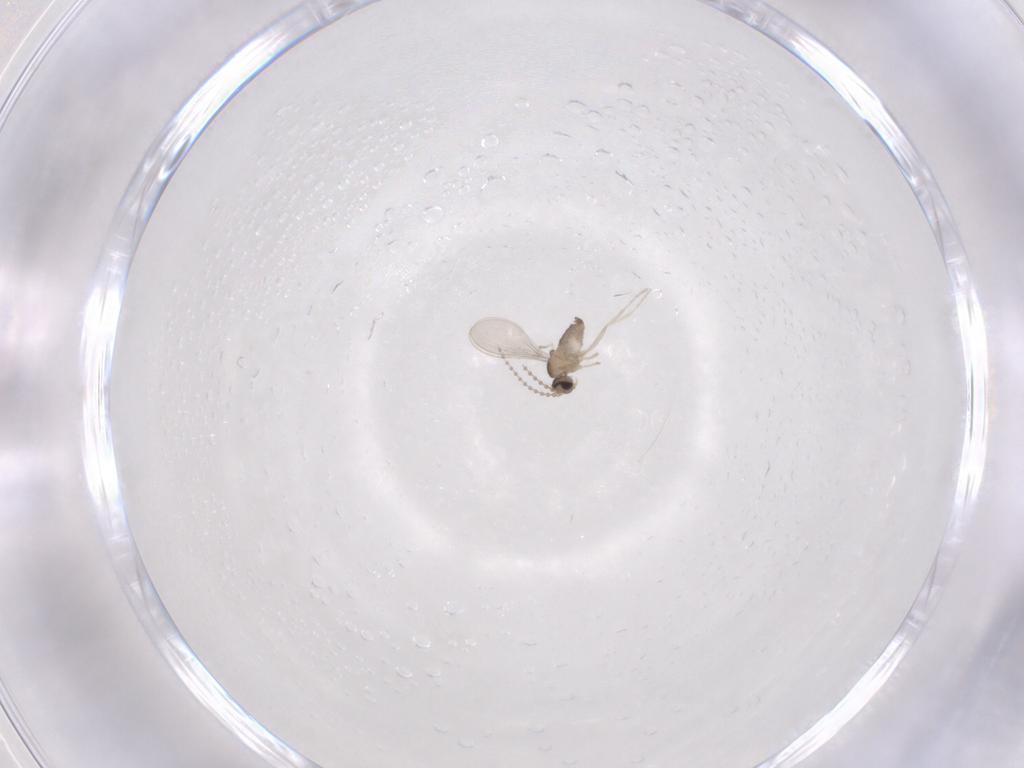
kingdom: Animalia
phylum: Arthropoda
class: Insecta
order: Diptera
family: Cecidomyiidae
